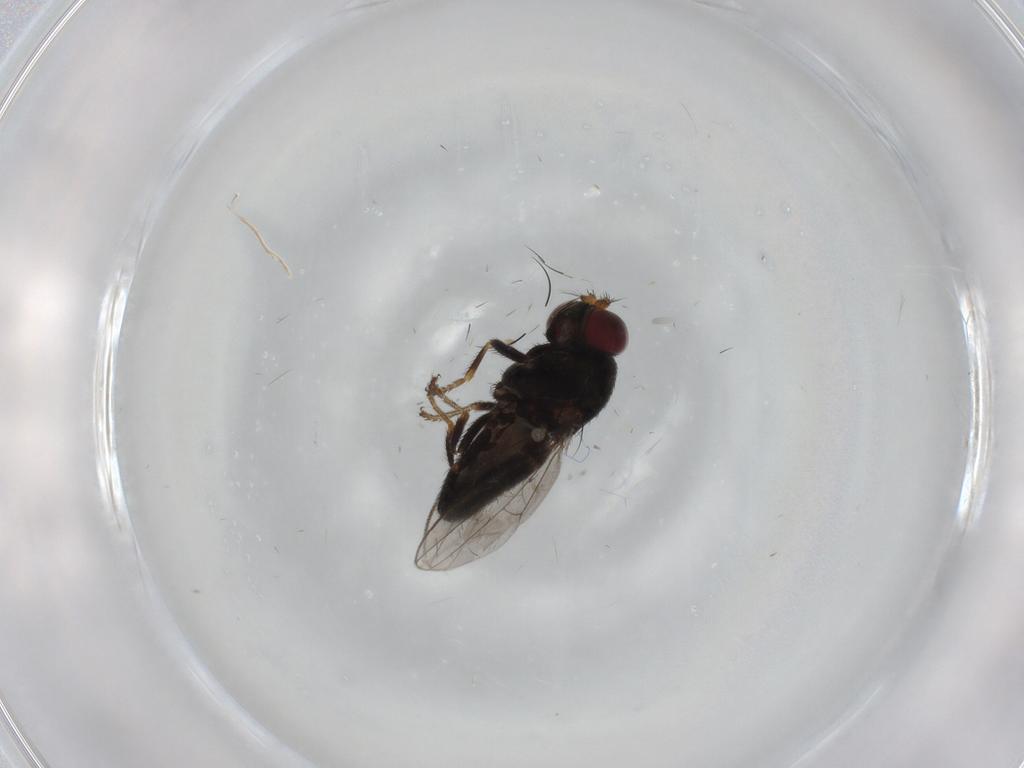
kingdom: Animalia
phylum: Arthropoda
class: Insecta
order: Diptera
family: Ephydridae
